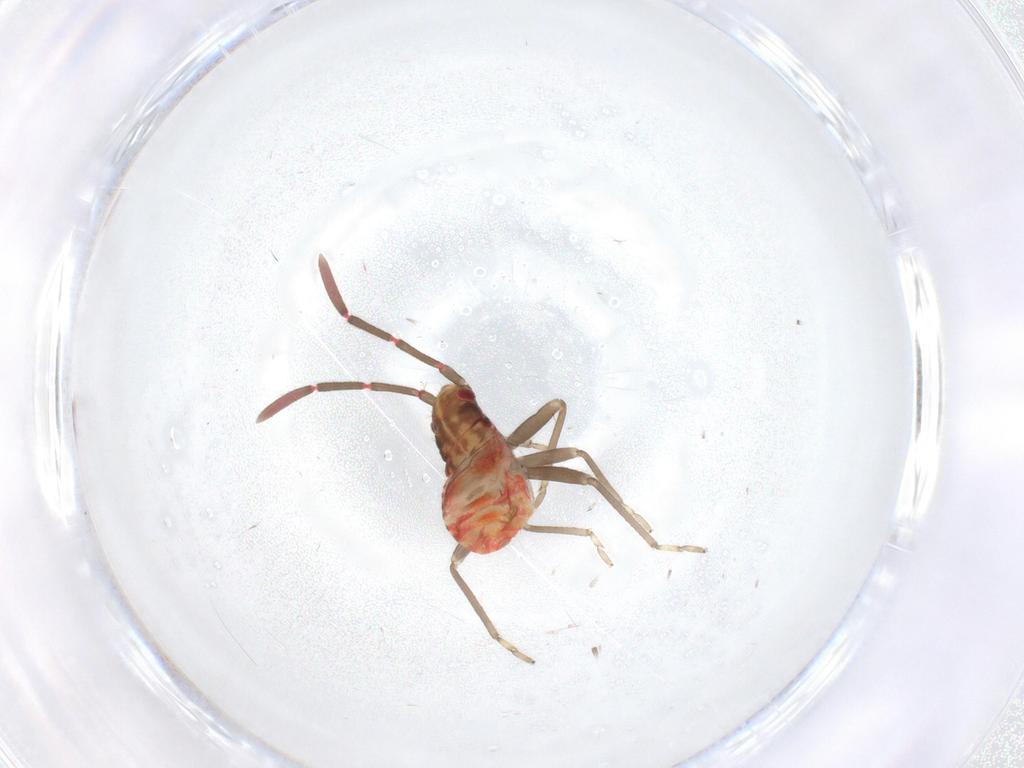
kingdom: Animalia
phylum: Arthropoda
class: Insecta
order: Hemiptera
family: Rhyparochromidae
